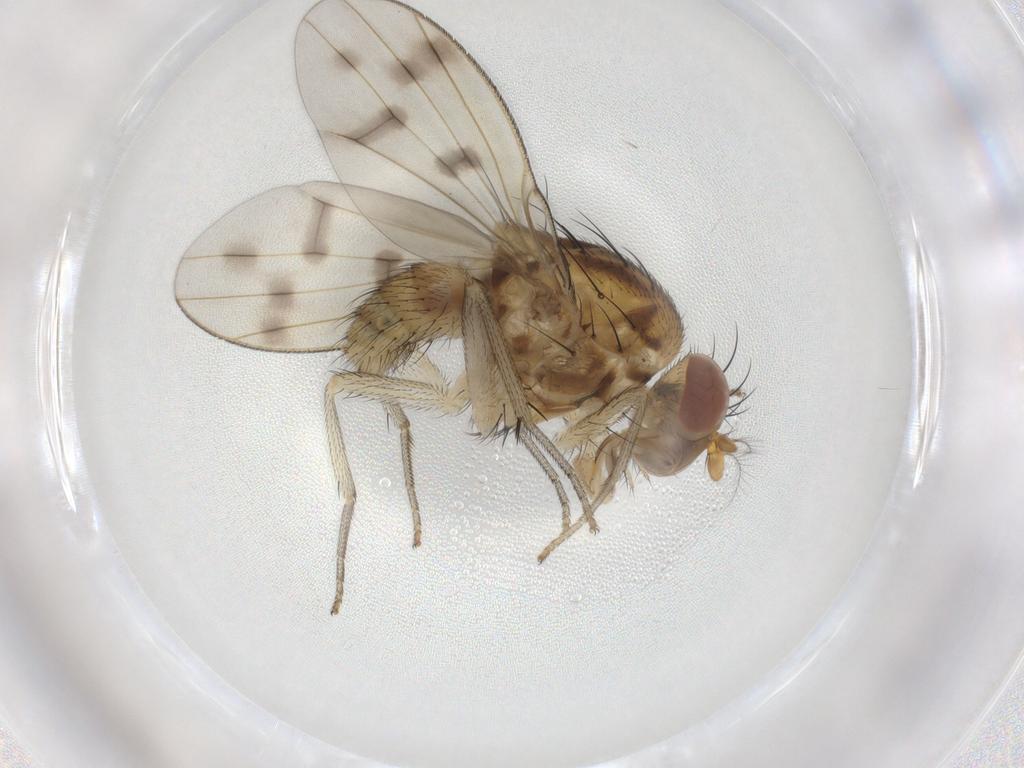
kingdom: Animalia
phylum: Arthropoda
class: Insecta
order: Diptera
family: Chironomidae
